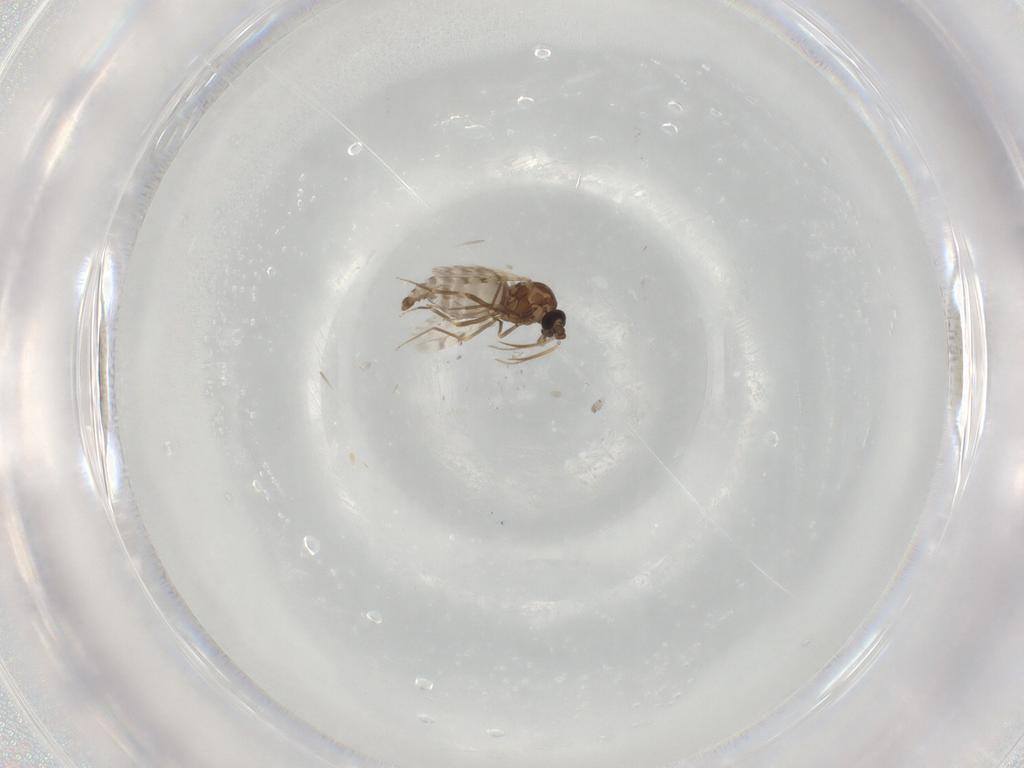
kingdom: Animalia
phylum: Arthropoda
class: Insecta
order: Diptera
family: Ceratopogonidae
